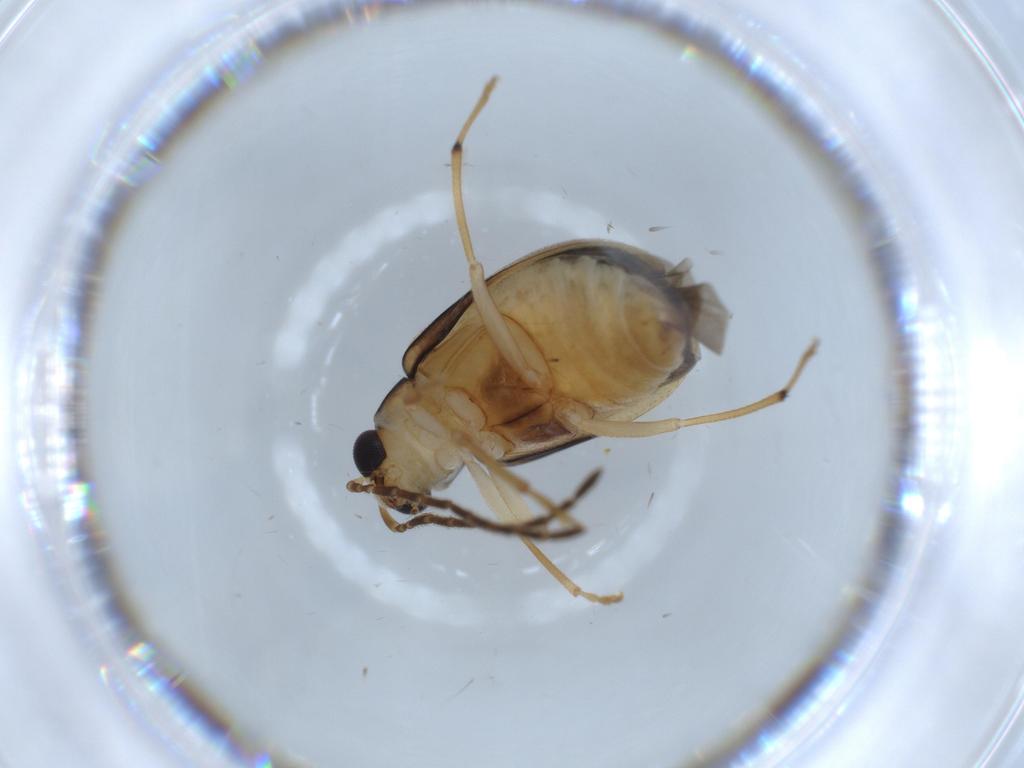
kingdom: Animalia
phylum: Arthropoda
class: Insecta
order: Coleoptera
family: Chrysomelidae
